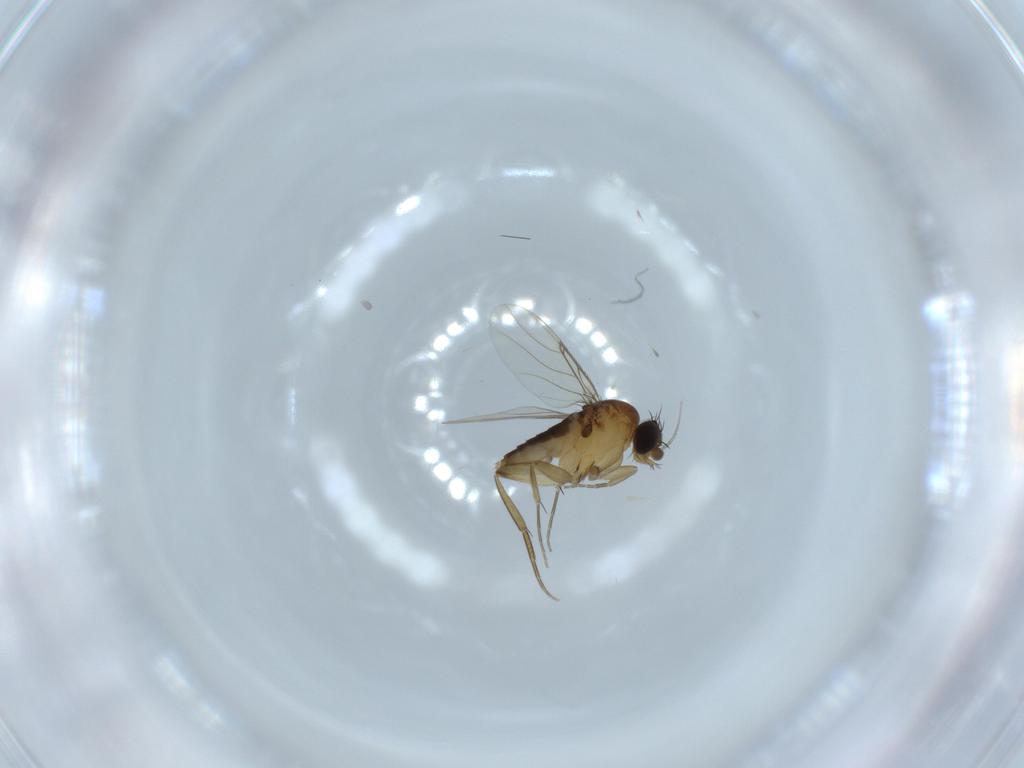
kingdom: Animalia
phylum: Arthropoda
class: Insecta
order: Diptera
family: Phoridae
